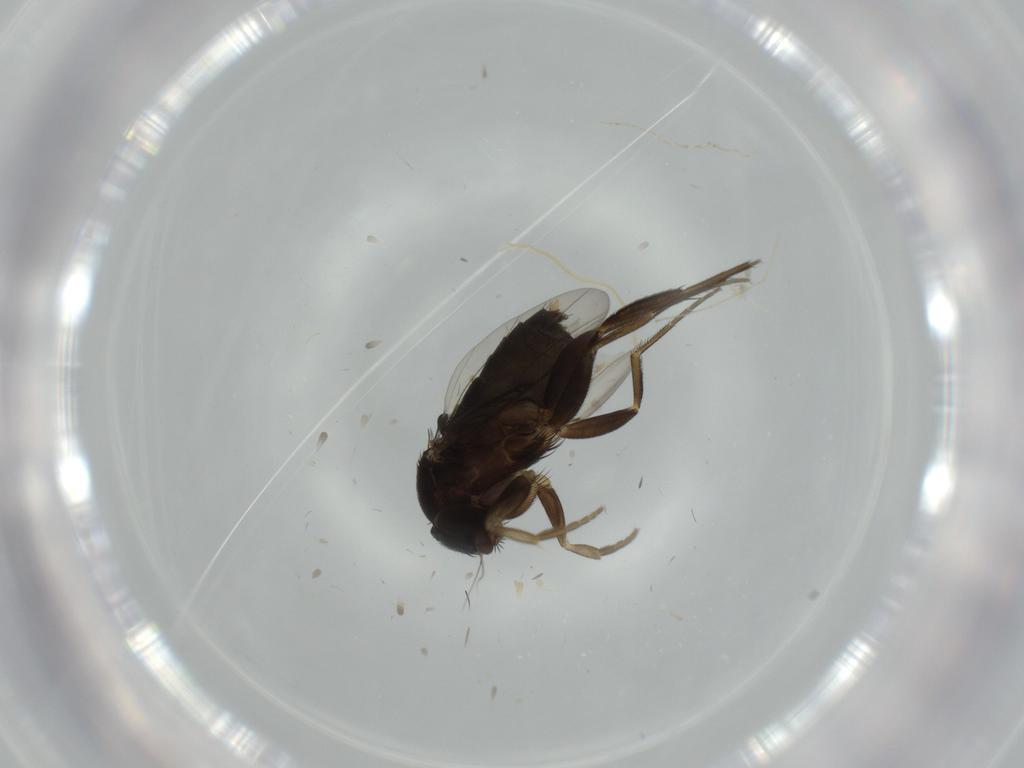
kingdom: Animalia
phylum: Arthropoda
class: Insecta
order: Diptera
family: Phoridae
